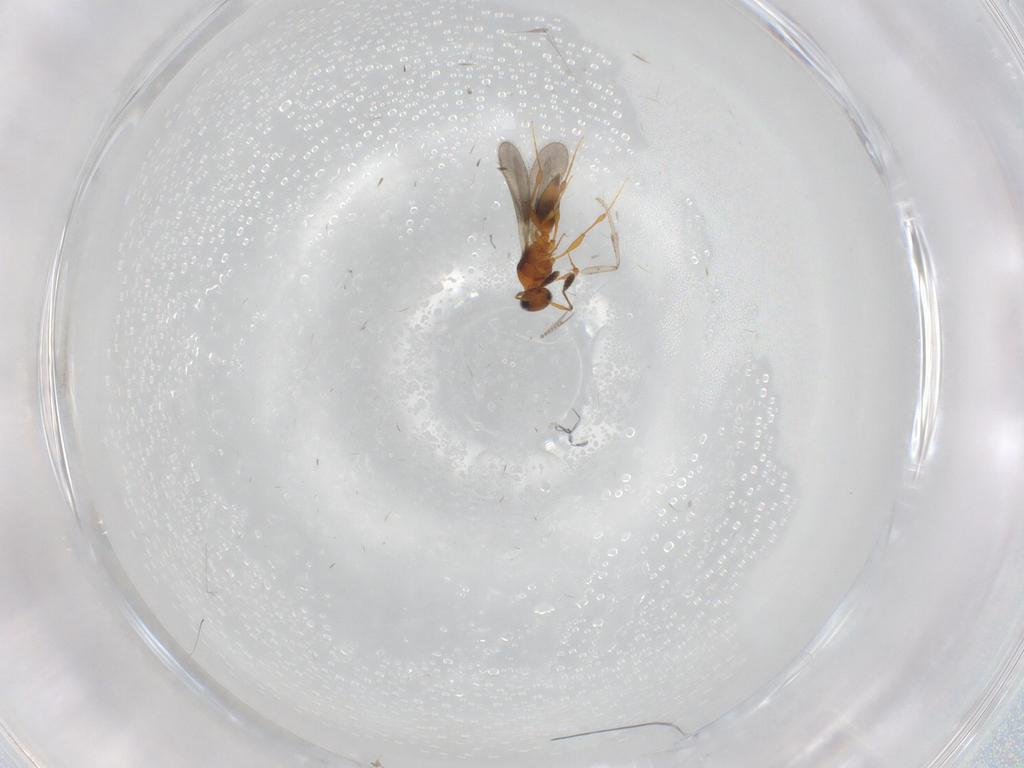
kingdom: Animalia
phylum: Arthropoda
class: Insecta
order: Hymenoptera
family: Platygastridae
